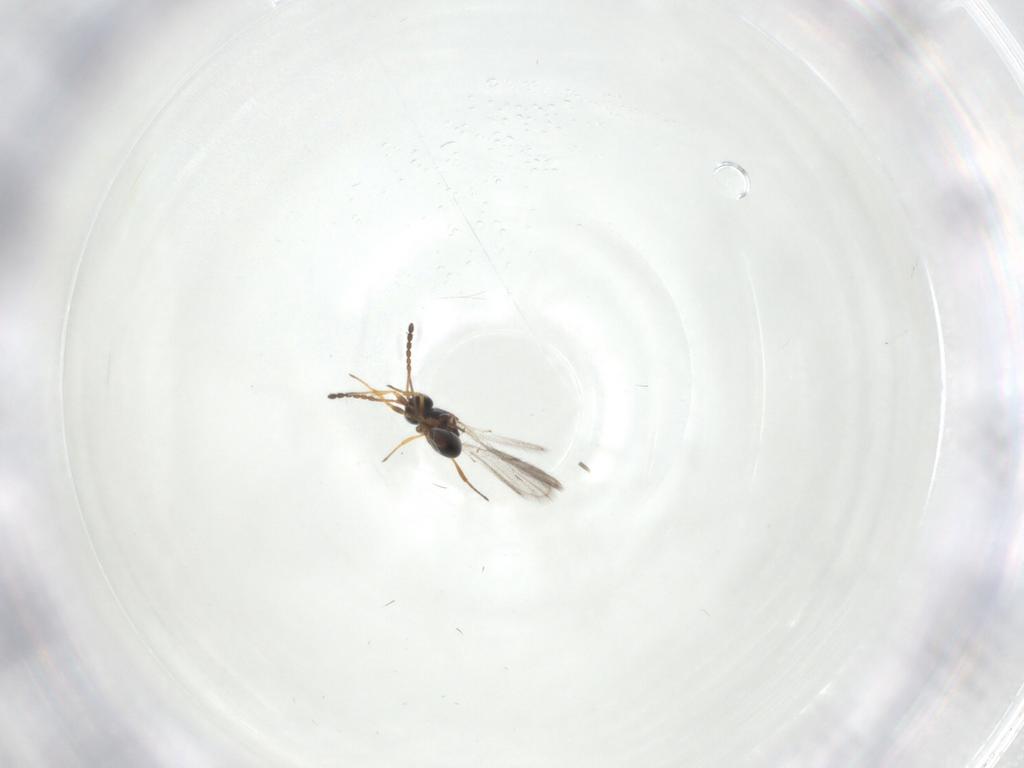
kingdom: Animalia
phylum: Arthropoda
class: Insecta
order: Hymenoptera
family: Figitidae
